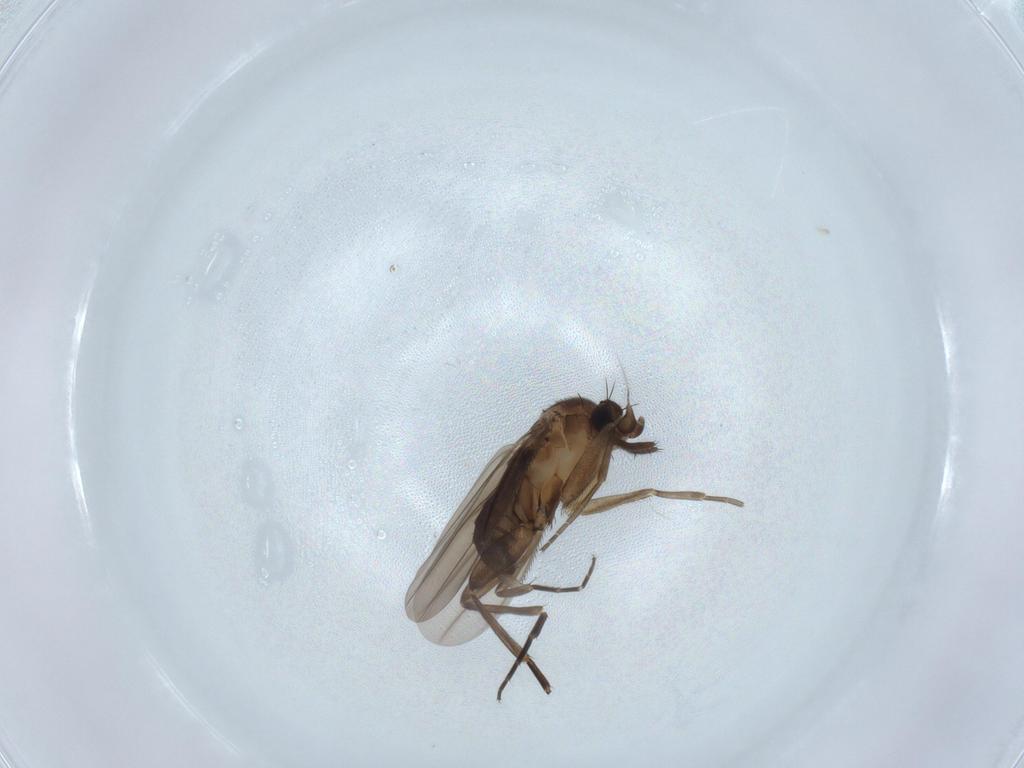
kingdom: Animalia
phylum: Arthropoda
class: Insecta
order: Diptera
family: Phoridae
